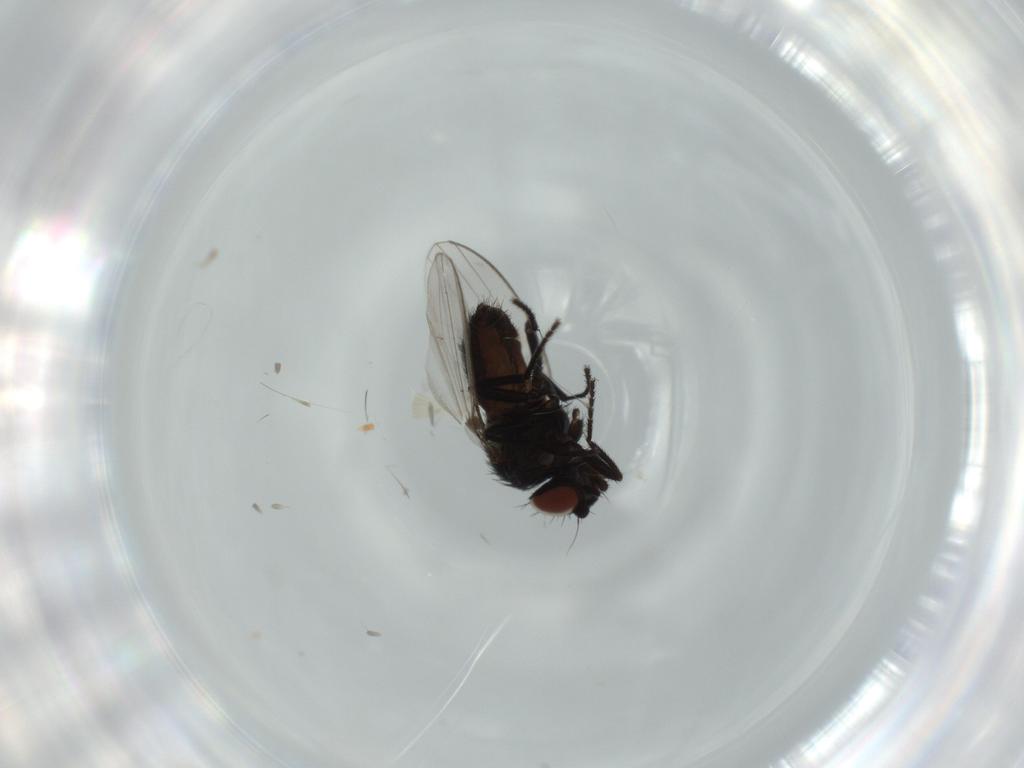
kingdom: Animalia
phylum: Arthropoda
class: Insecta
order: Diptera
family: Milichiidae
